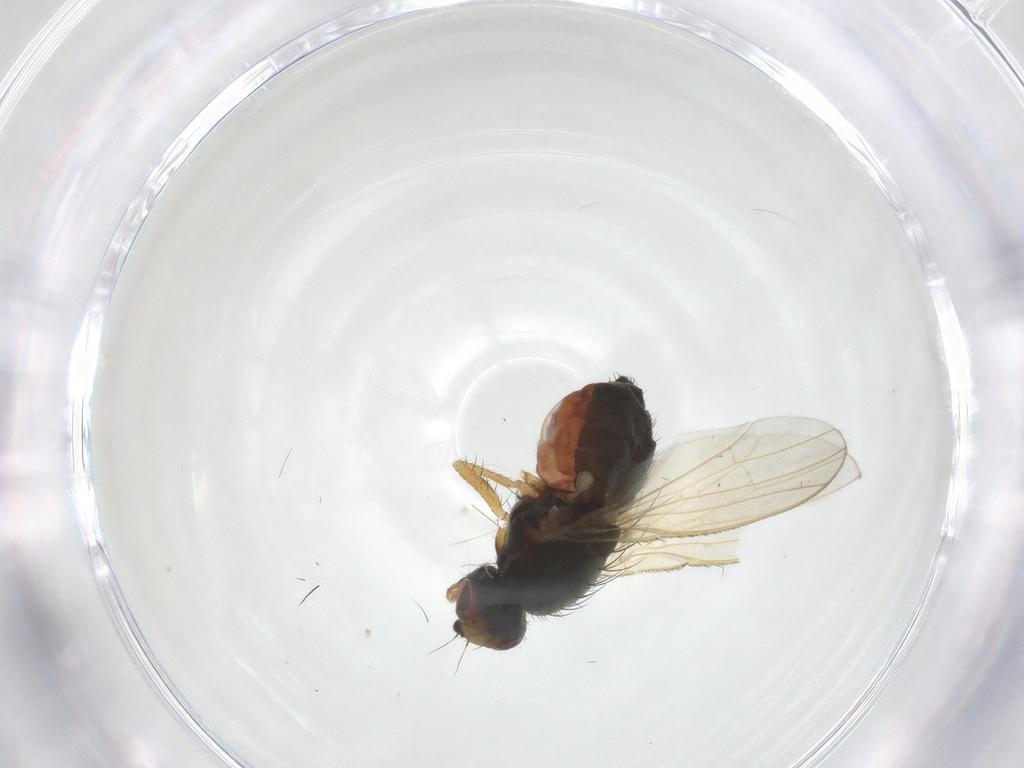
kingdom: Animalia
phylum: Arthropoda
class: Insecta
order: Diptera
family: Heleomyzidae
